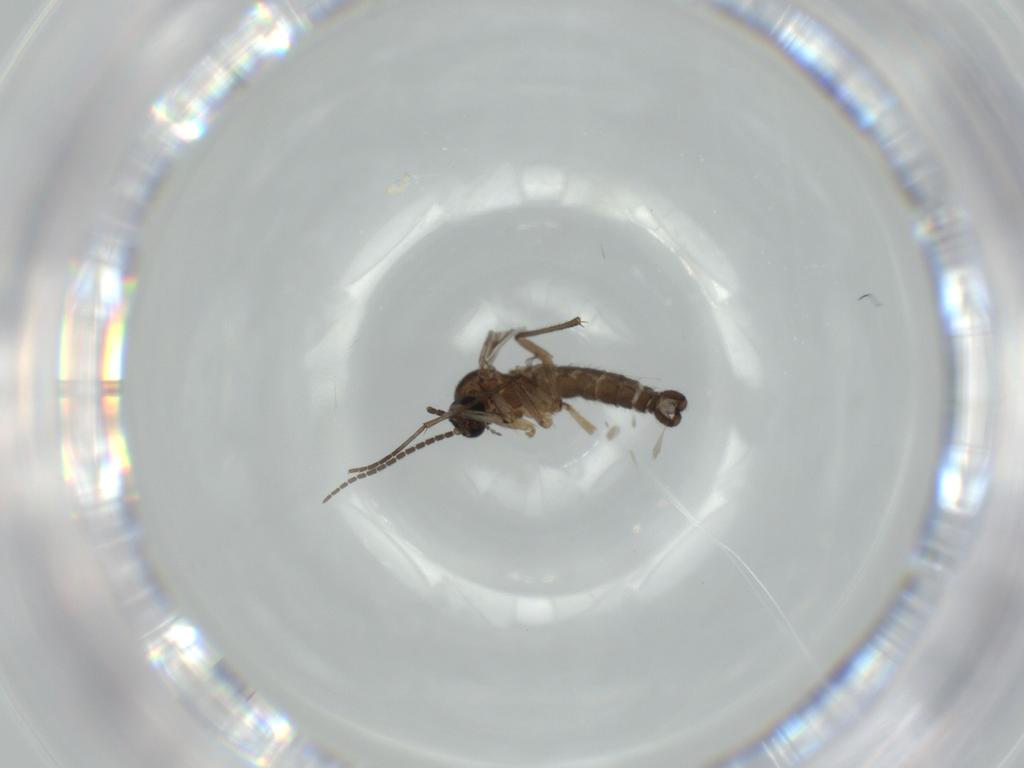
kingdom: Animalia
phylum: Arthropoda
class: Insecta
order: Diptera
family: Sciaridae
